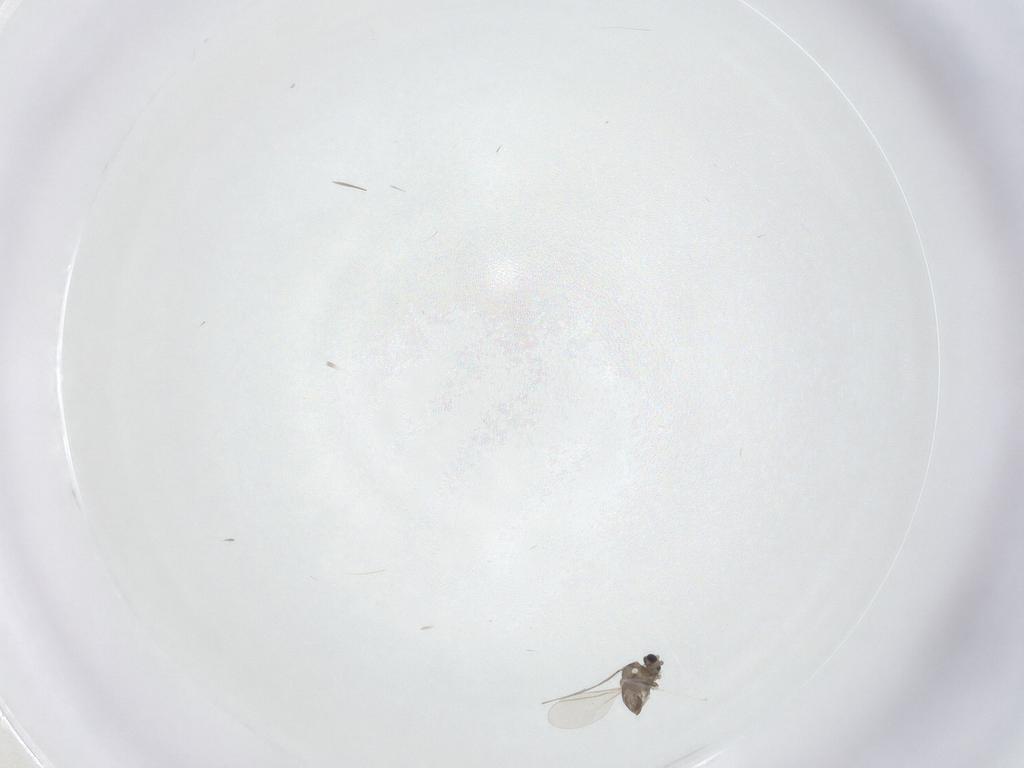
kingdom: Animalia
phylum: Arthropoda
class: Insecta
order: Diptera
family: Cecidomyiidae
